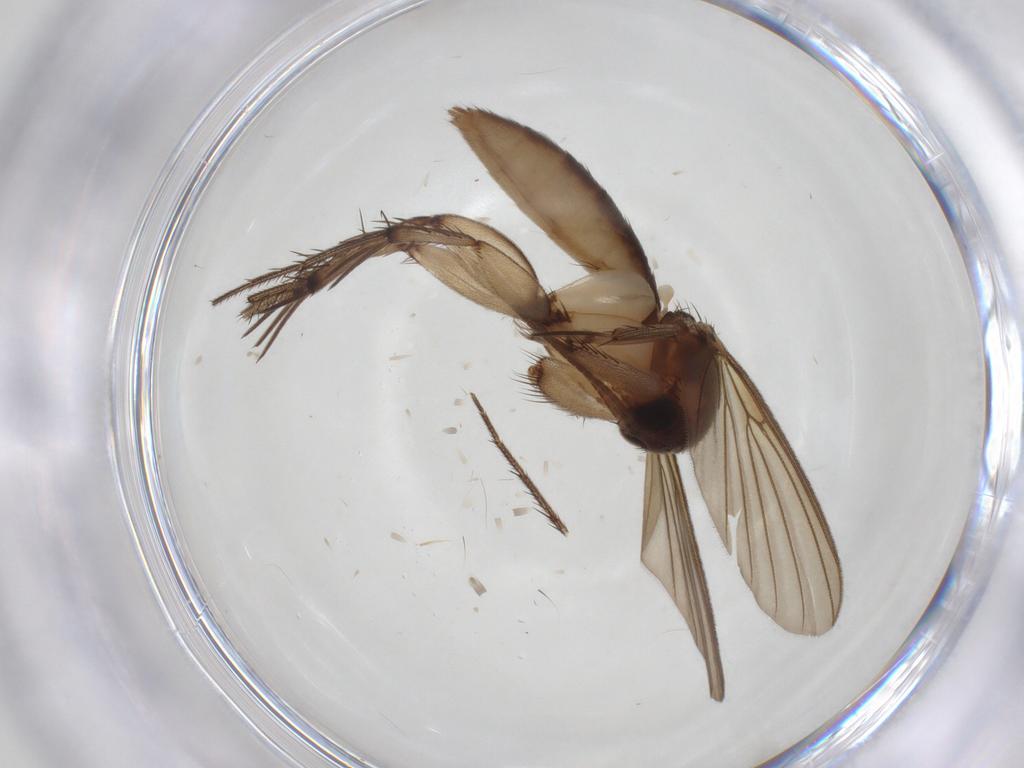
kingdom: Animalia
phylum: Arthropoda
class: Insecta
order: Diptera
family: Mycetophilidae
